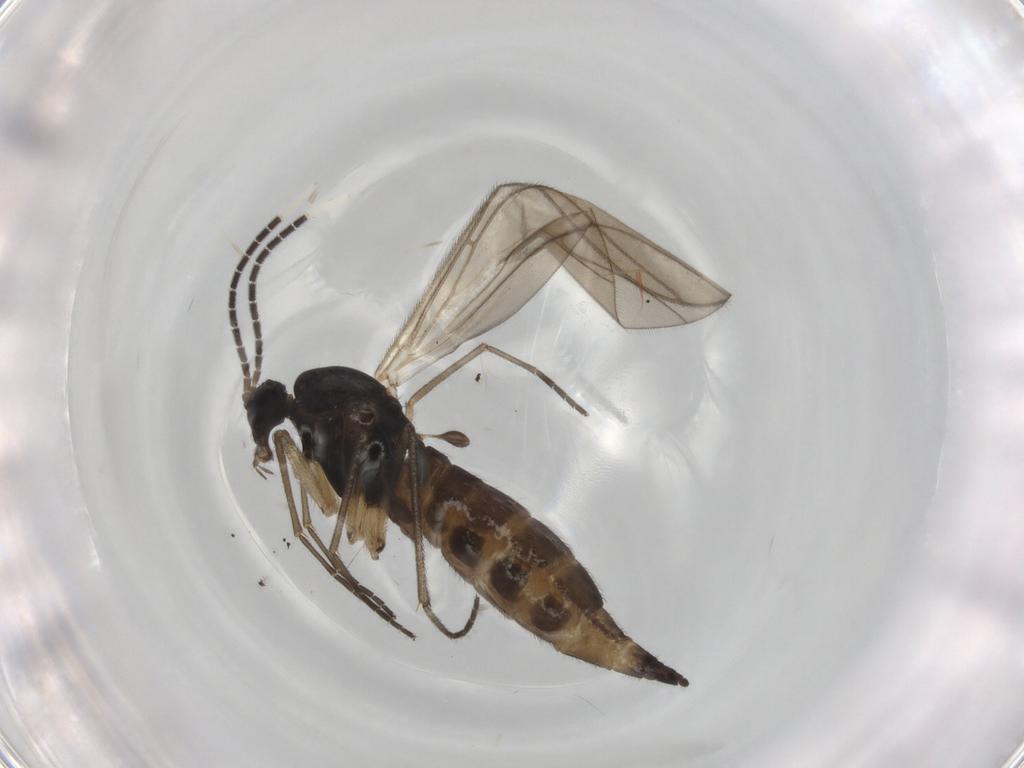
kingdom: Animalia
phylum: Arthropoda
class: Insecta
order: Diptera
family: Sciaridae
